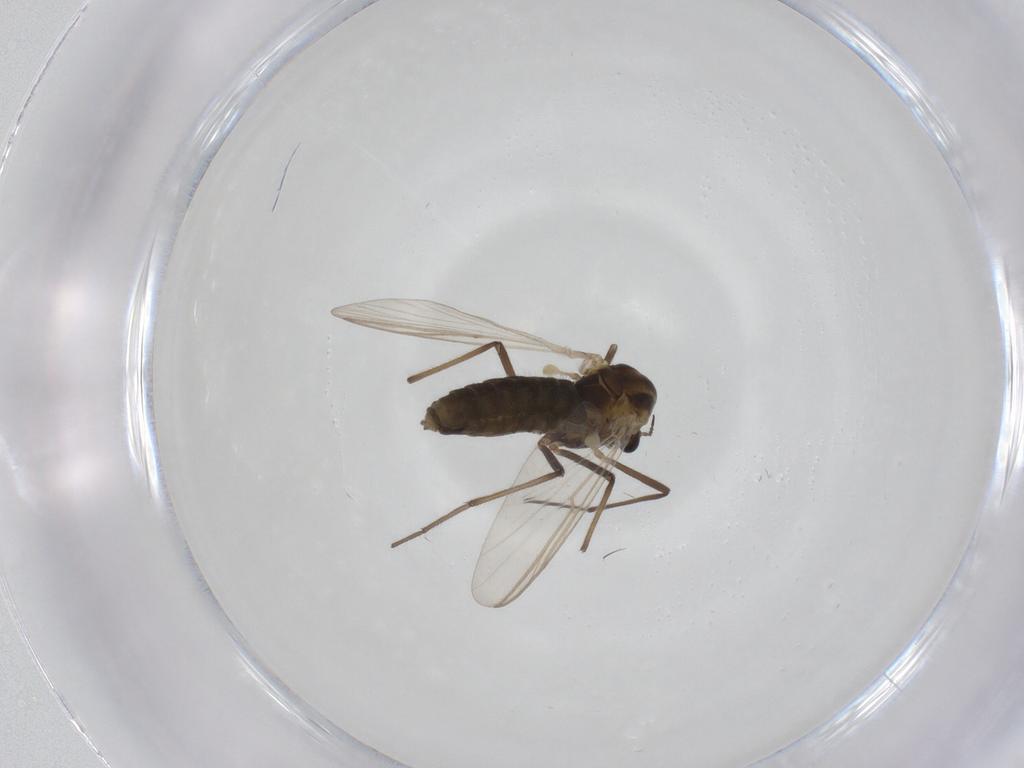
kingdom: Animalia
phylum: Arthropoda
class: Insecta
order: Diptera
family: Chironomidae
